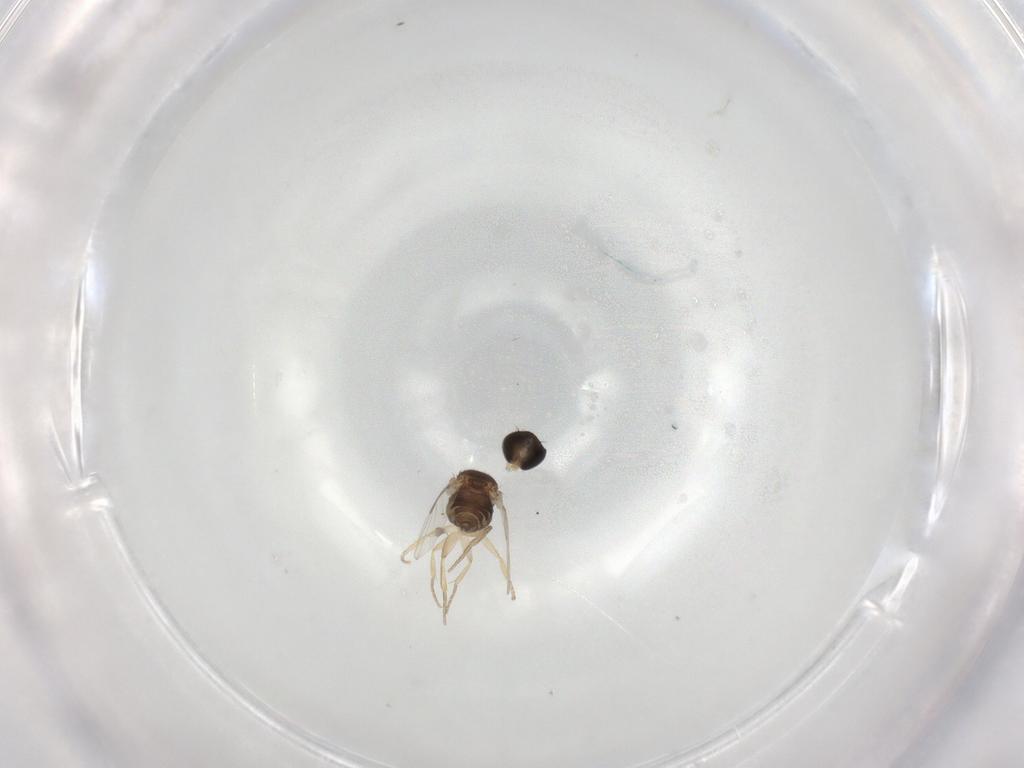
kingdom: Animalia
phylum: Arthropoda
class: Insecta
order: Diptera
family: Phoridae
